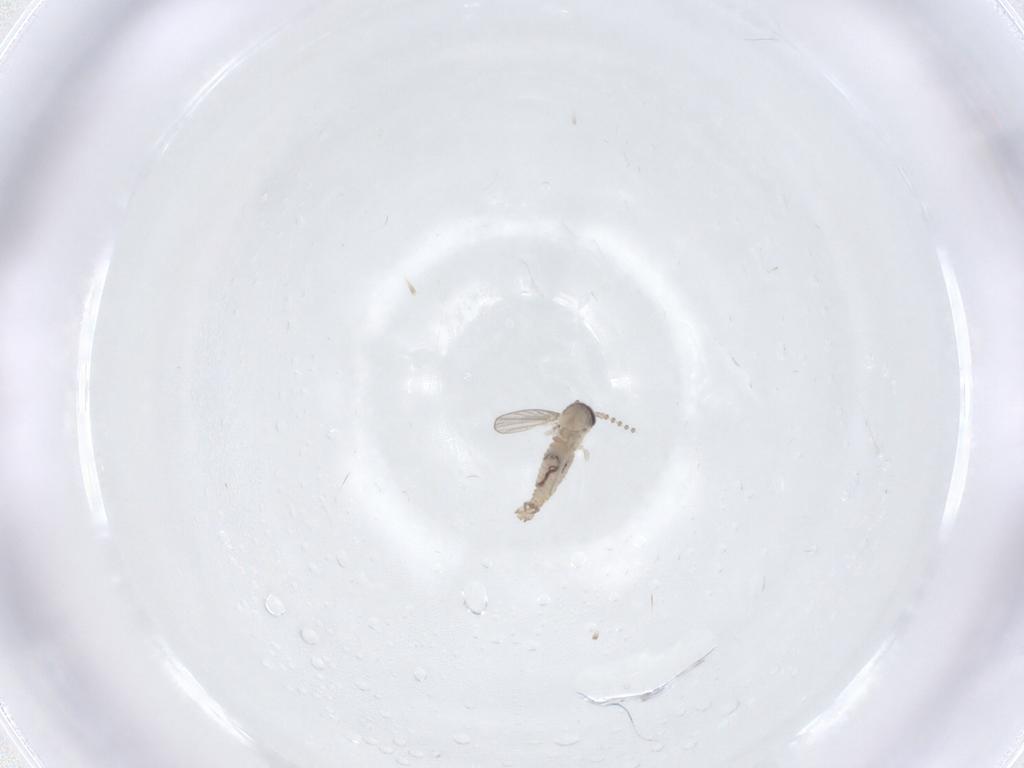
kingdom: Animalia
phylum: Arthropoda
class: Insecta
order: Diptera
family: Psychodidae
